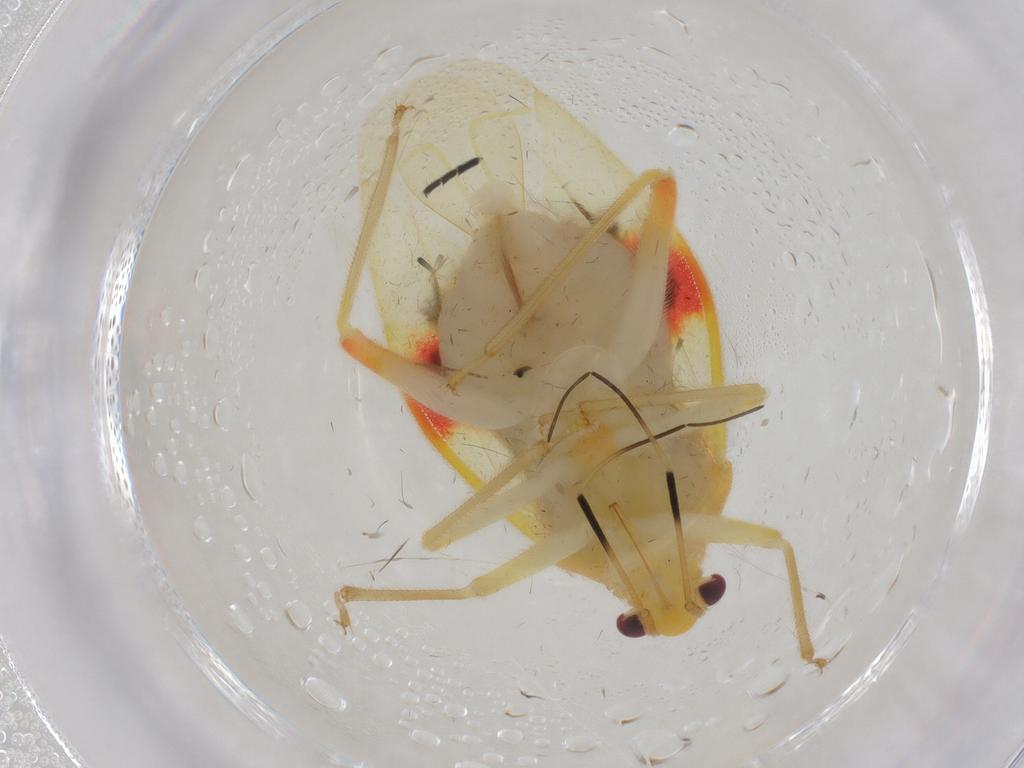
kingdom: Animalia
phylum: Arthropoda
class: Insecta
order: Hemiptera
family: Miridae
